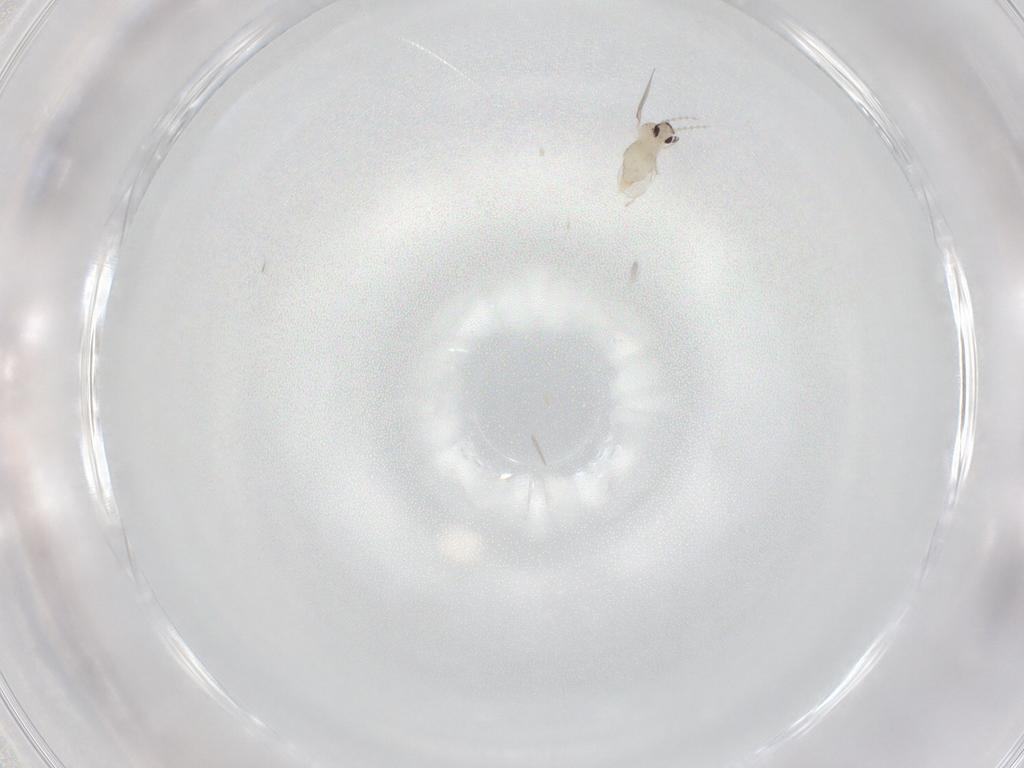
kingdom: Animalia
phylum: Arthropoda
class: Insecta
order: Diptera
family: Cecidomyiidae
